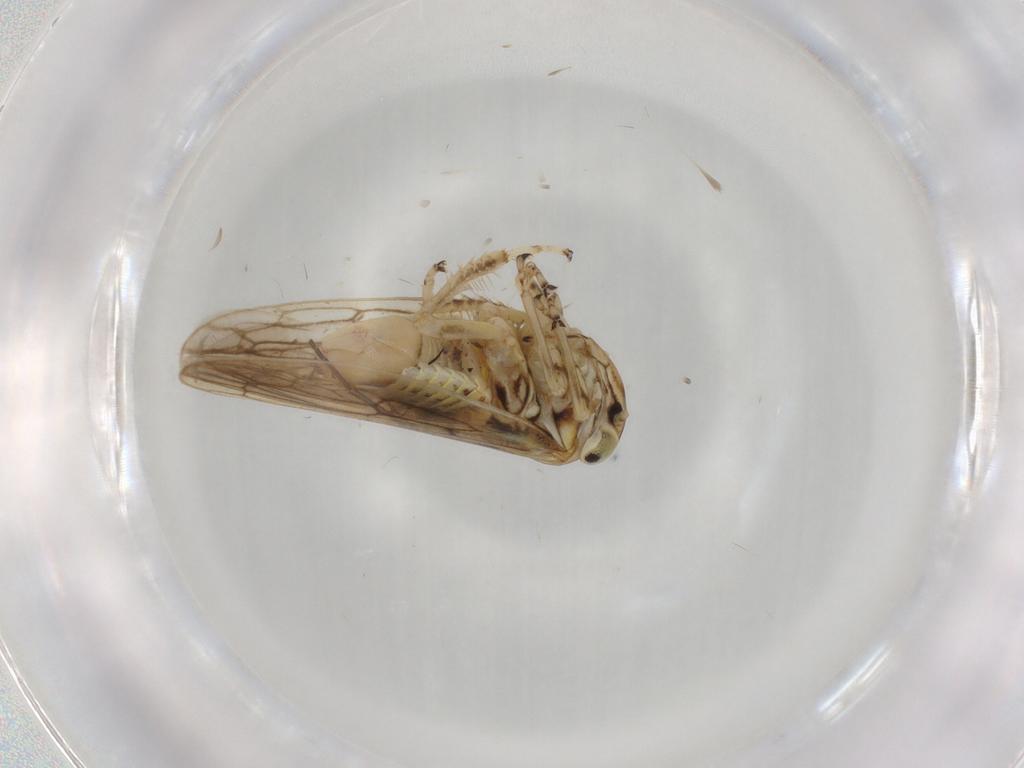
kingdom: Animalia
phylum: Arthropoda
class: Insecta
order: Hemiptera
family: Cicadellidae
